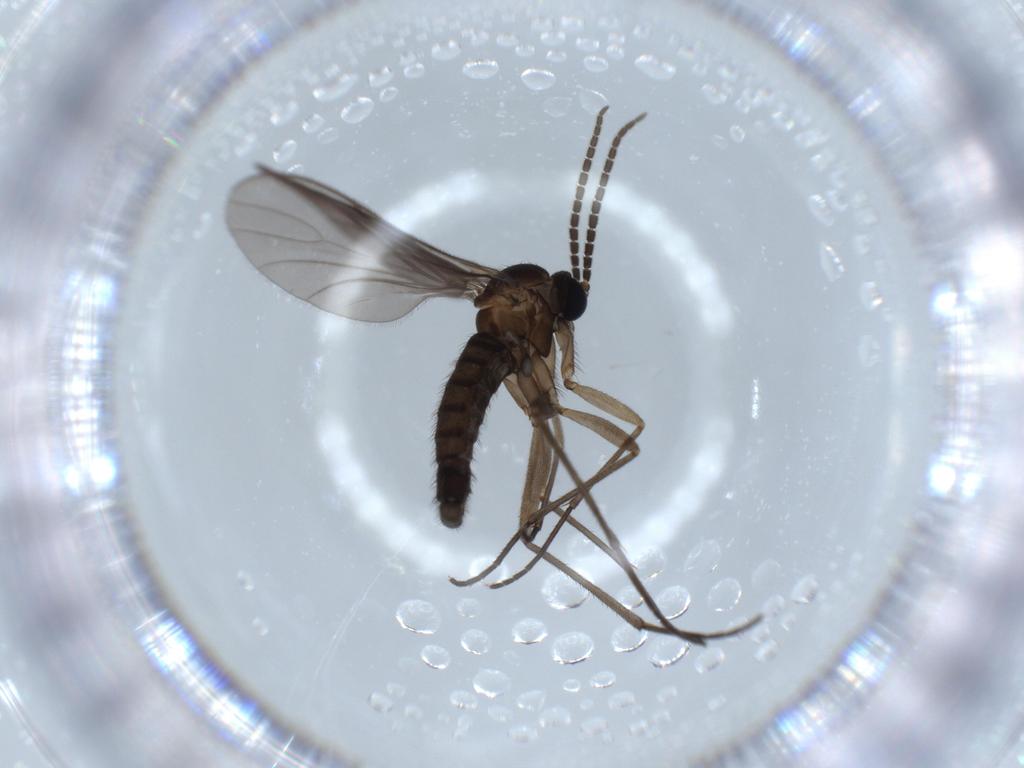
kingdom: Animalia
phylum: Arthropoda
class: Insecta
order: Diptera
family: Sciaridae
